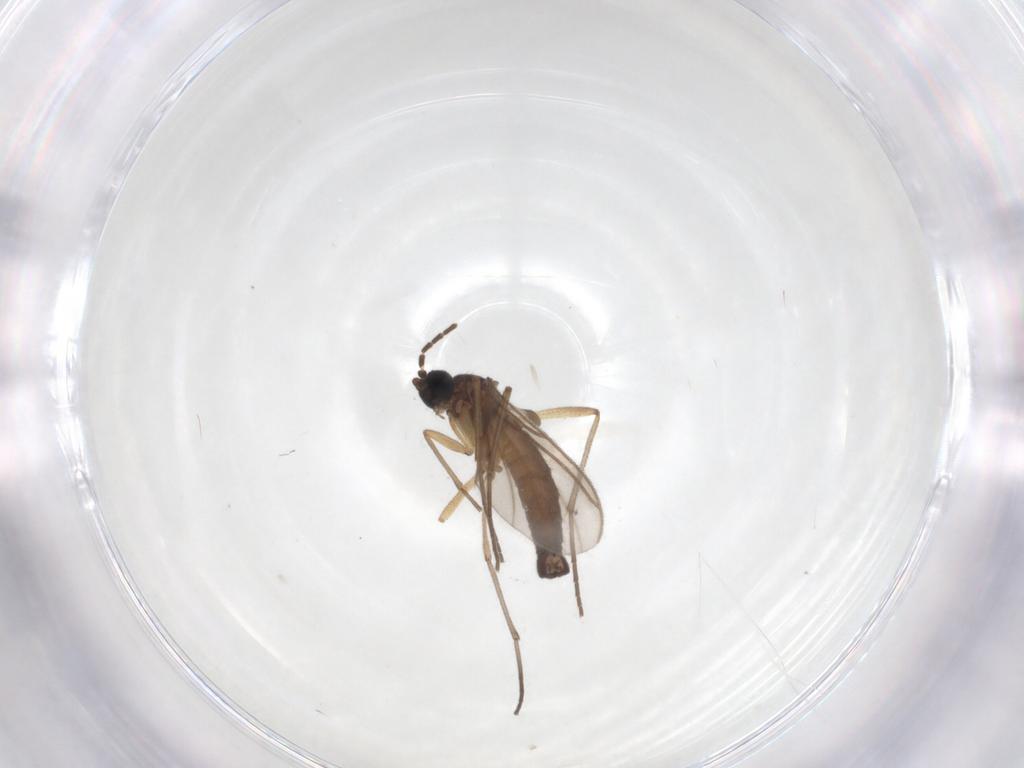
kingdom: Animalia
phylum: Arthropoda
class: Insecta
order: Diptera
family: Sciaridae
